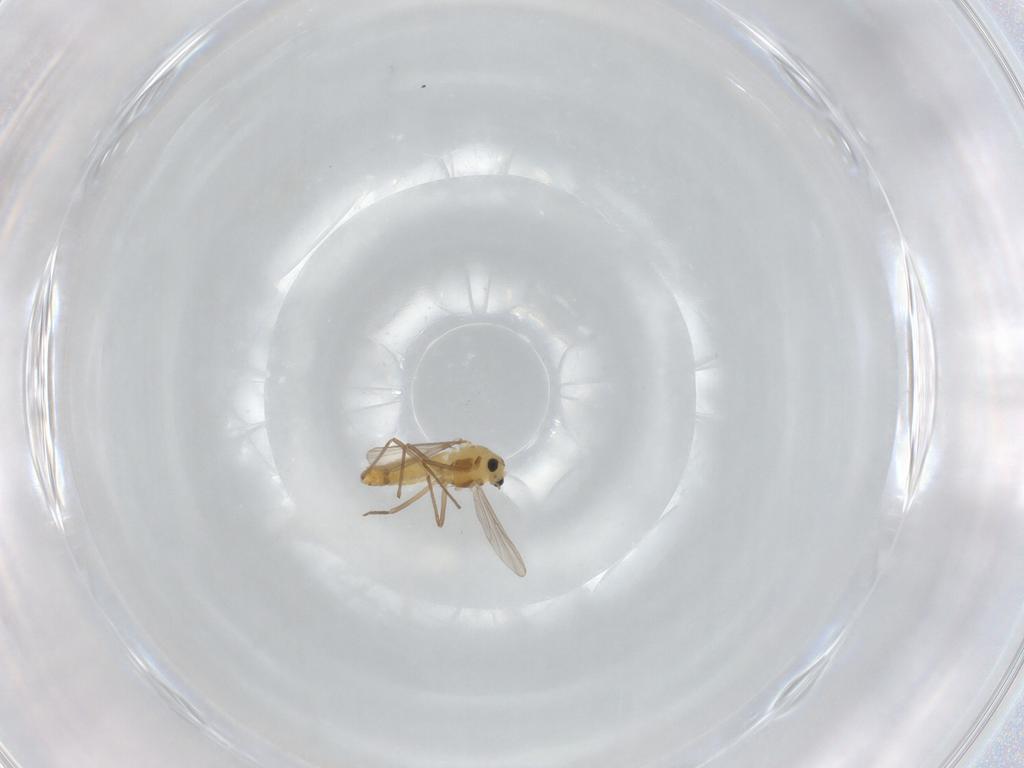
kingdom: Animalia
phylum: Arthropoda
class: Insecta
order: Diptera
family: Chironomidae
